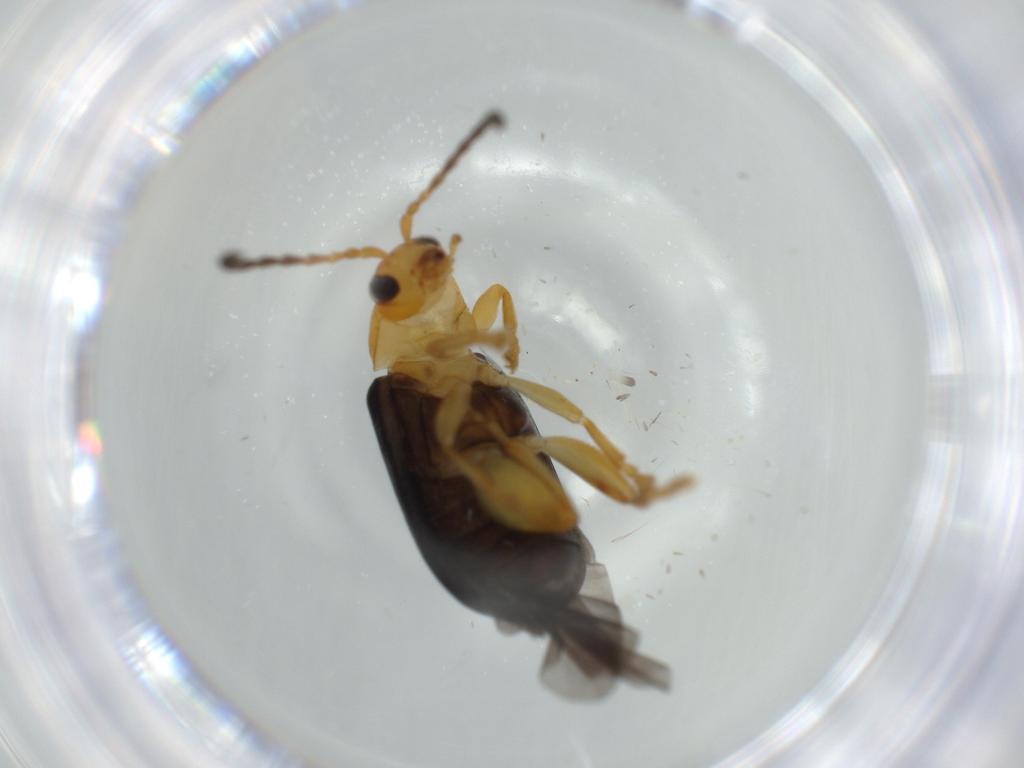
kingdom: Animalia
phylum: Arthropoda
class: Insecta
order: Coleoptera
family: Chrysomelidae
